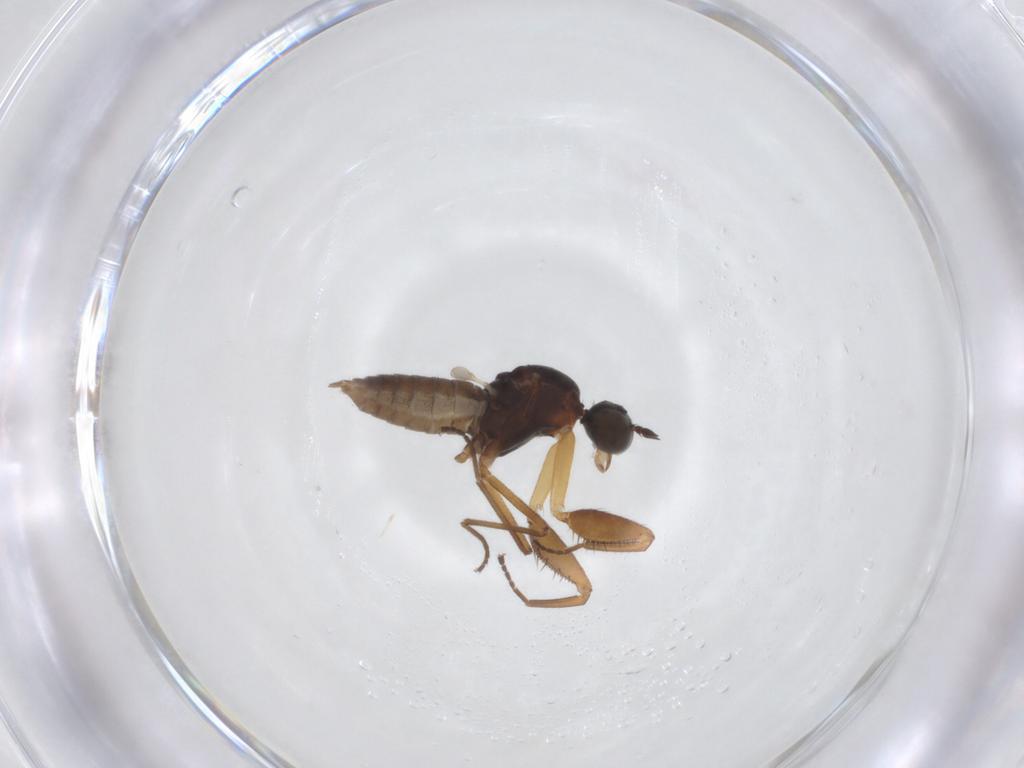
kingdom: Animalia
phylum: Arthropoda
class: Insecta
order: Diptera
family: Empididae
